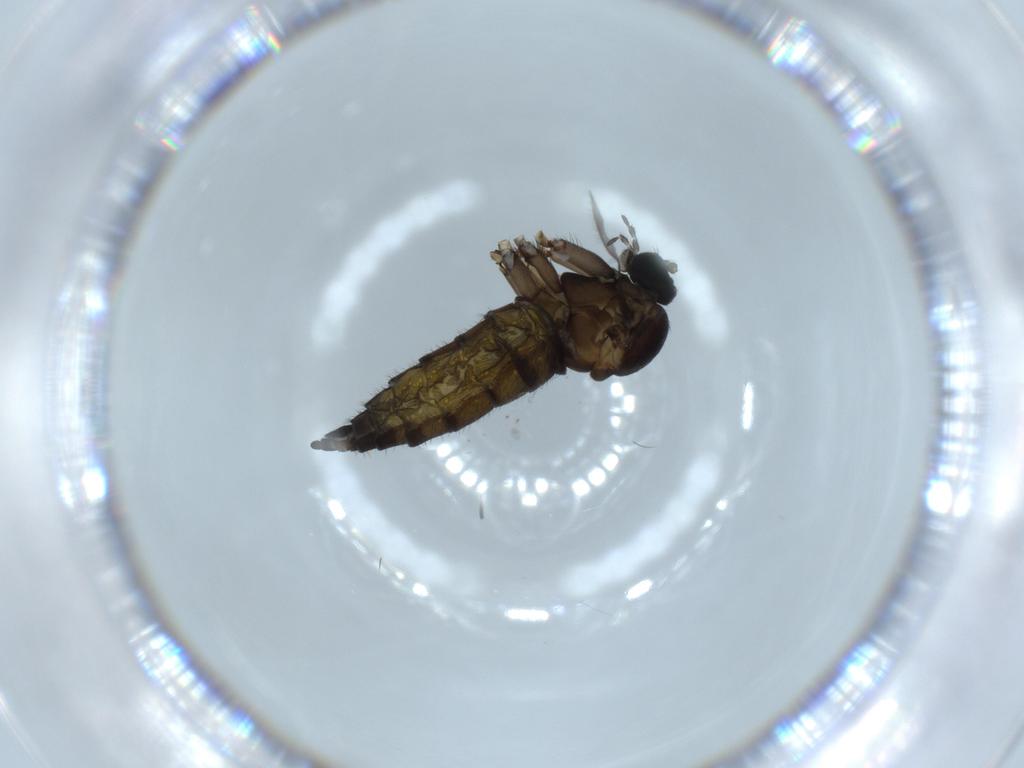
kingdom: Animalia
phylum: Arthropoda
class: Insecta
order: Diptera
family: Sciaridae
